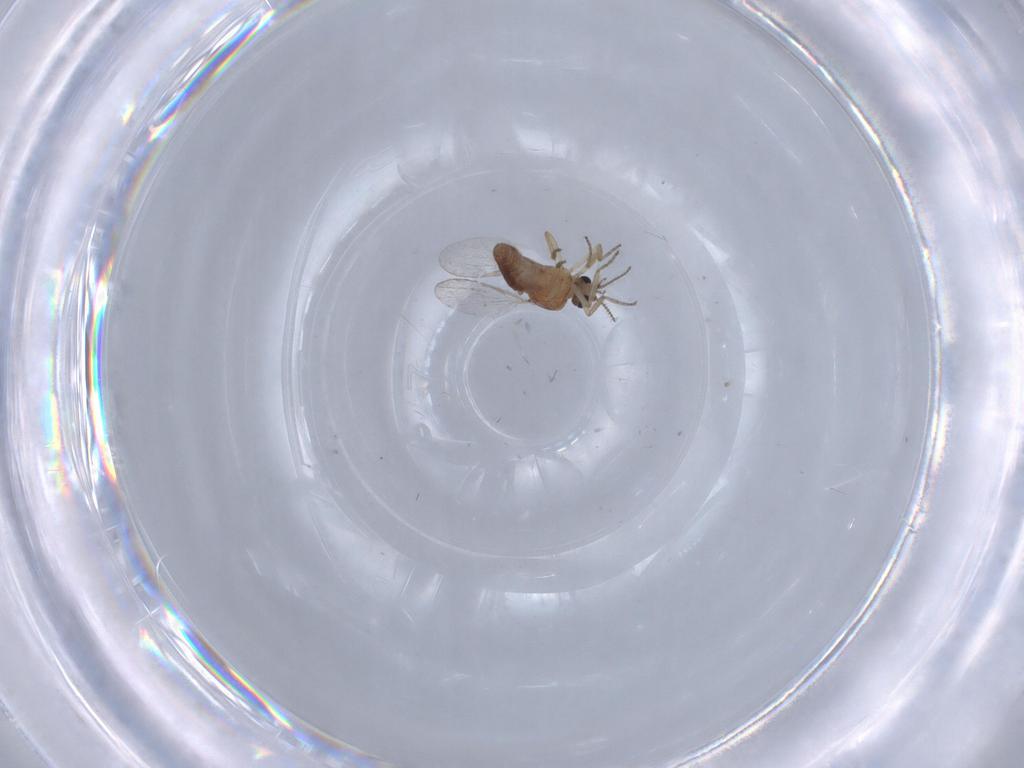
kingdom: Animalia
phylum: Arthropoda
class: Insecta
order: Diptera
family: Ceratopogonidae
